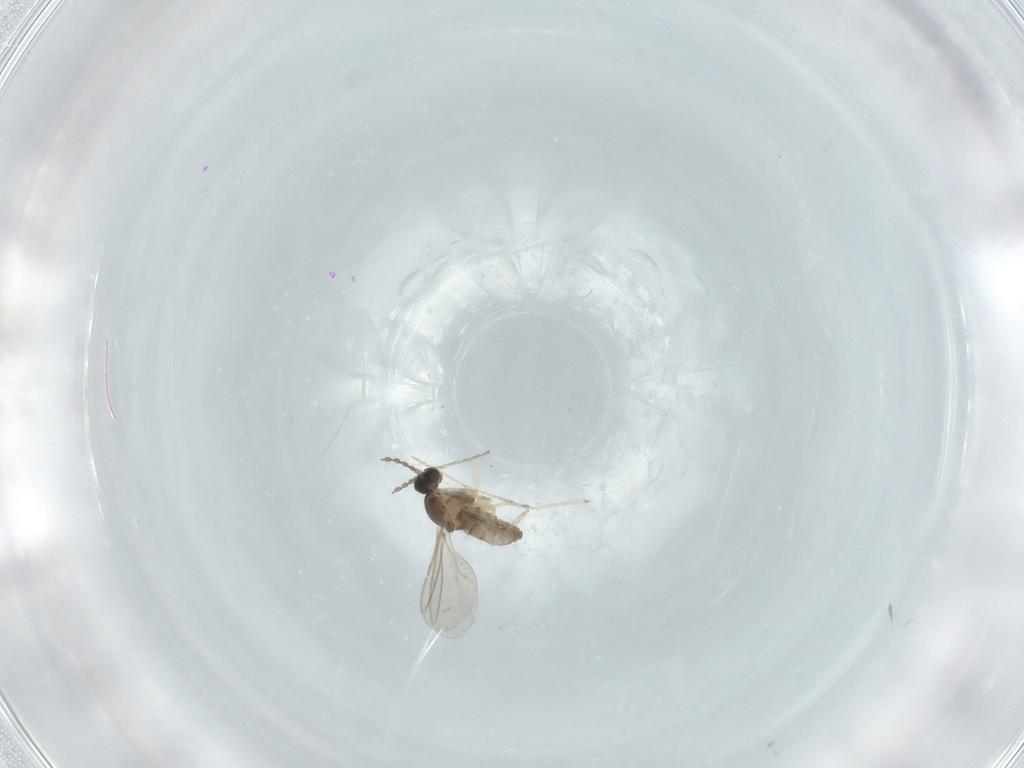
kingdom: Animalia
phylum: Arthropoda
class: Insecta
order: Diptera
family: Cecidomyiidae
